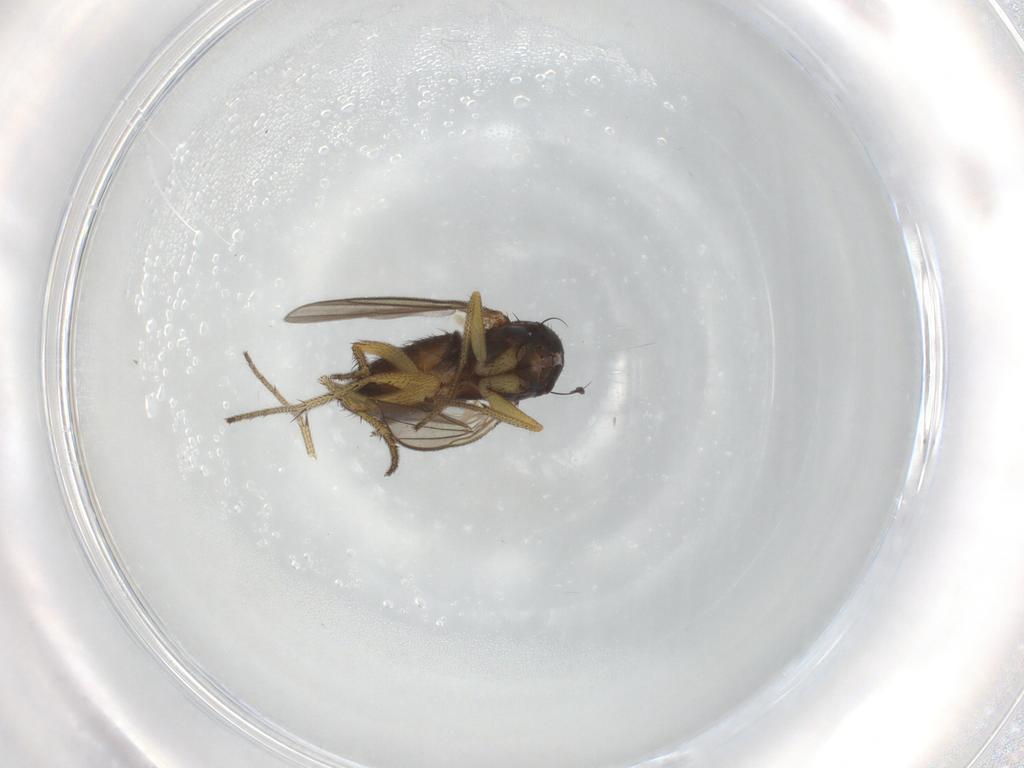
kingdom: Animalia
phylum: Arthropoda
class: Insecta
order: Diptera
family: Dolichopodidae
